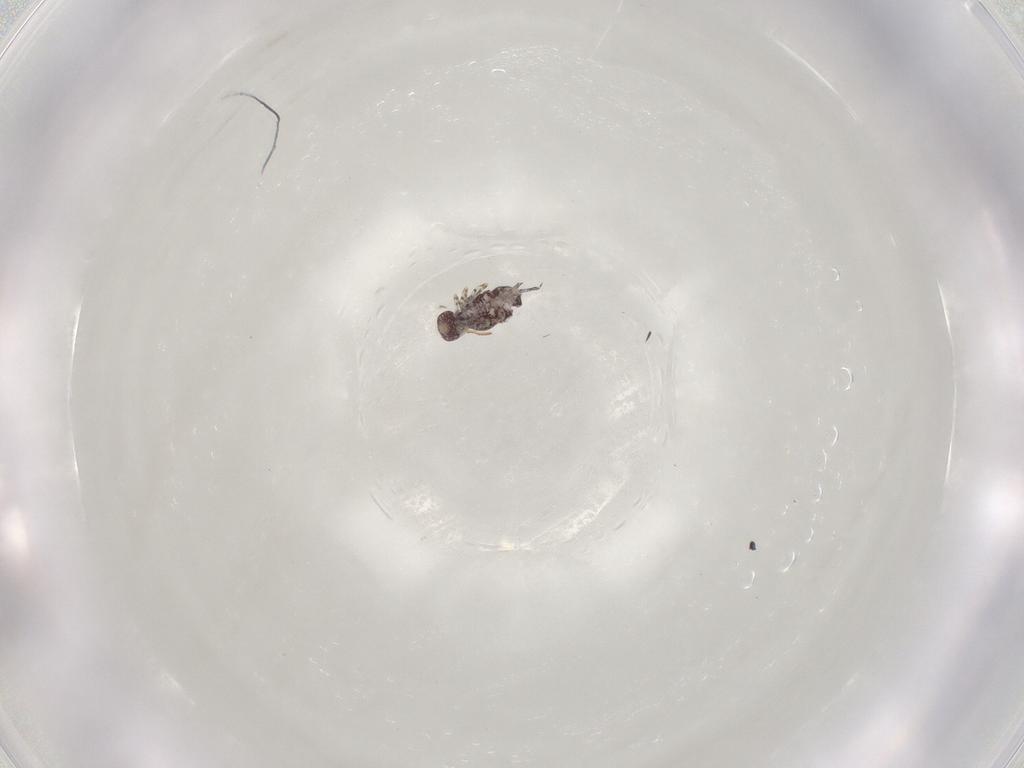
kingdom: Animalia
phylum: Arthropoda
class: Collembola
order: Symphypleona
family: Bourletiellidae
